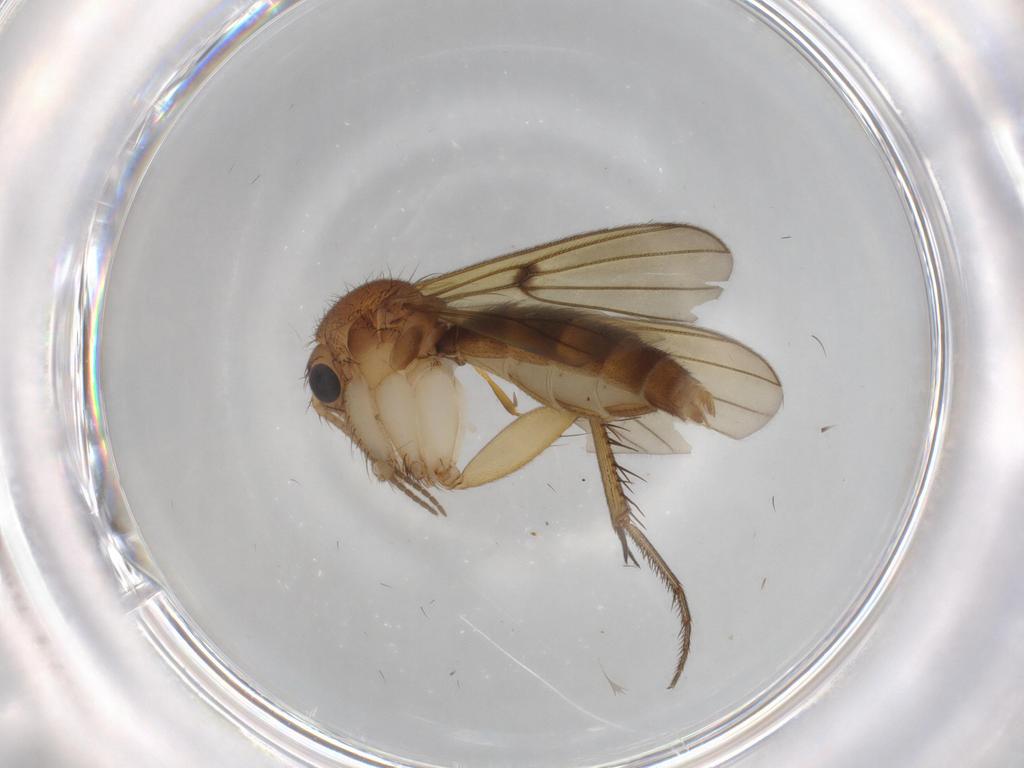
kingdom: Animalia
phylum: Arthropoda
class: Insecta
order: Diptera
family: Mycetophilidae
